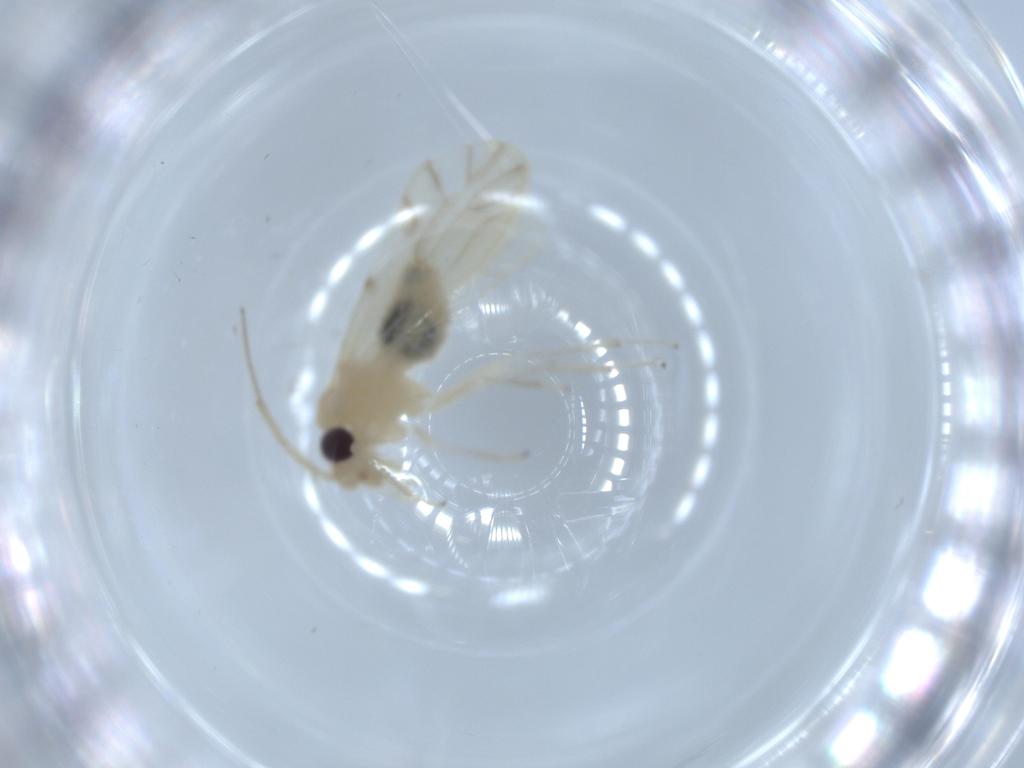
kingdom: Animalia
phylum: Arthropoda
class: Insecta
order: Psocodea
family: Caeciliusidae
